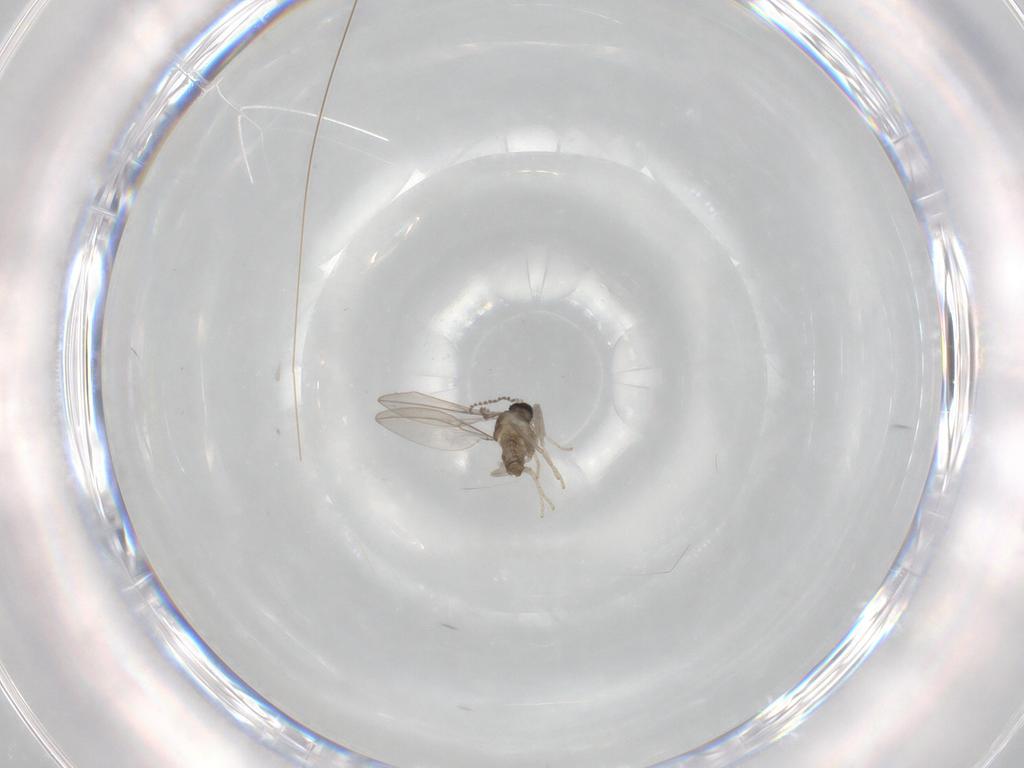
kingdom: Animalia
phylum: Arthropoda
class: Insecta
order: Diptera
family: Cecidomyiidae
